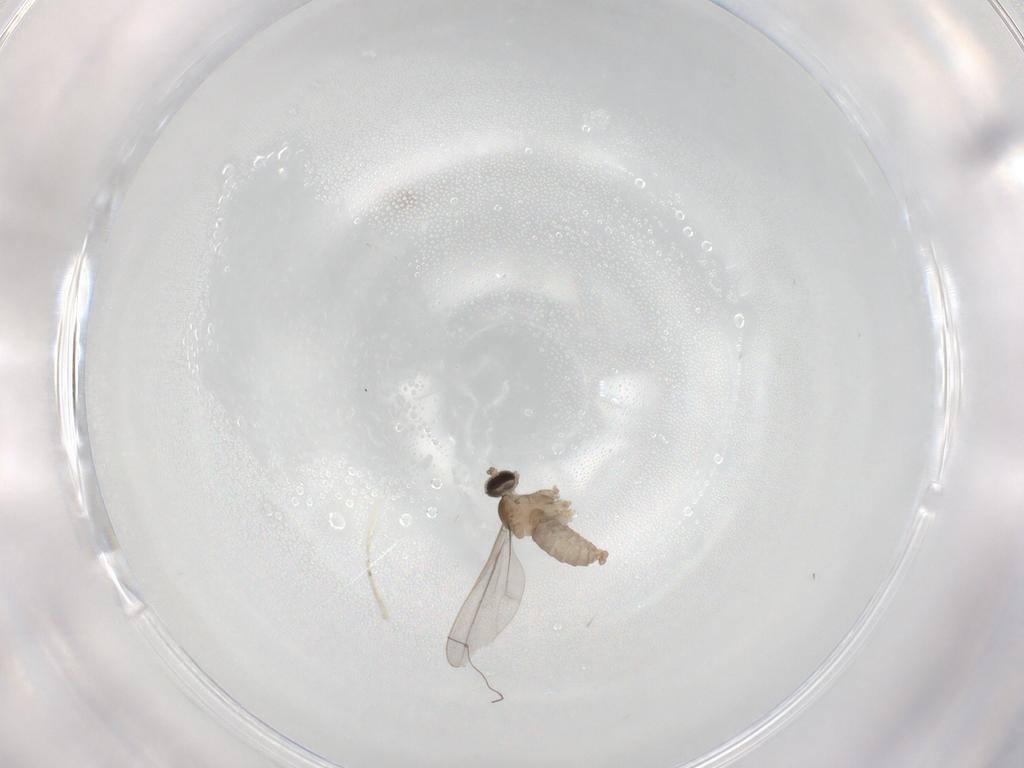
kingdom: Animalia
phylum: Arthropoda
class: Insecta
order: Diptera
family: Cecidomyiidae
